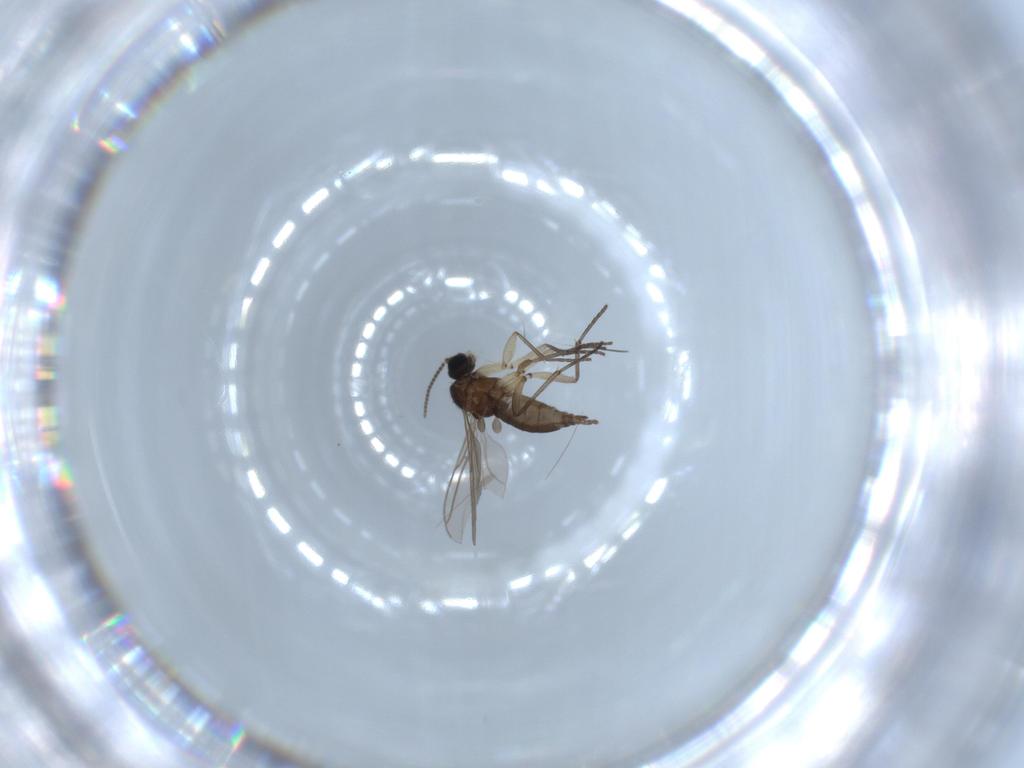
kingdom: Animalia
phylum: Arthropoda
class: Insecta
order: Diptera
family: Sciaridae
